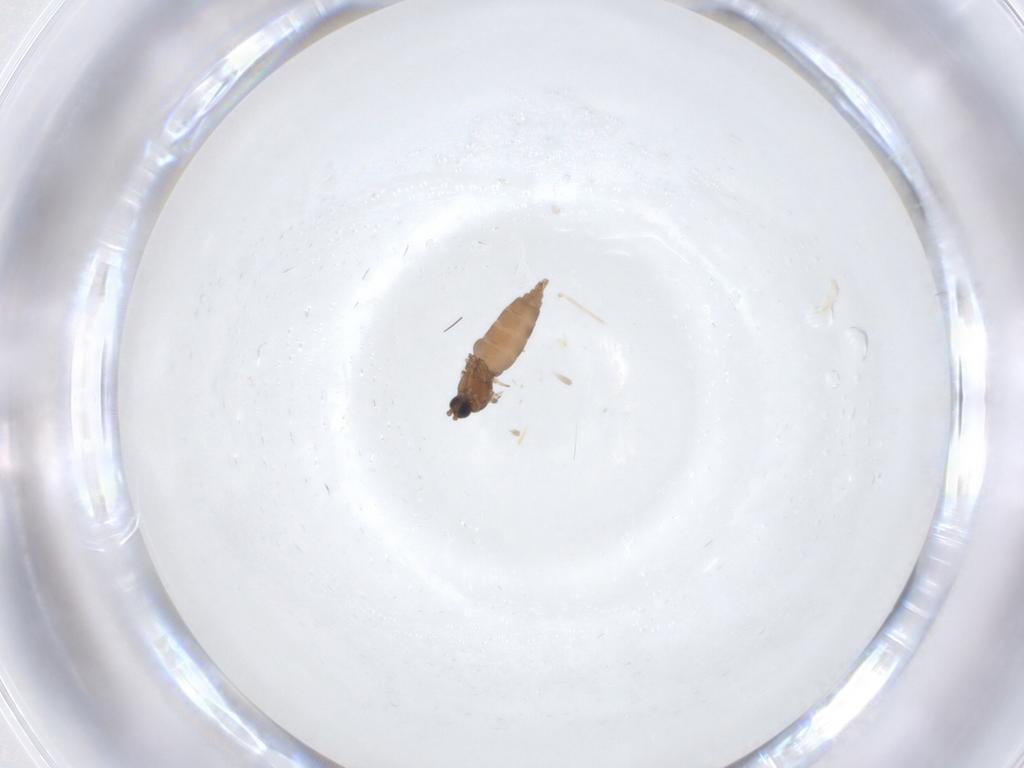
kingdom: Animalia
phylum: Arthropoda
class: Insecta
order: Diptera
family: Sciaridae
